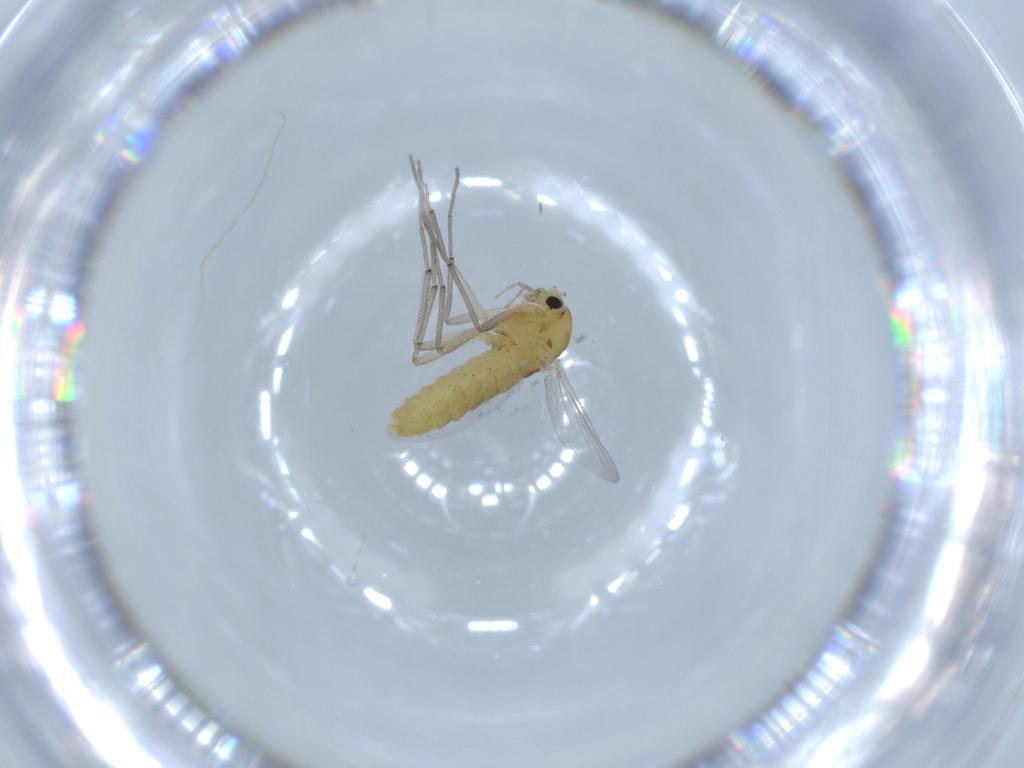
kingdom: Animalia
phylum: Arthropoda
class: Insecta
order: Diptera
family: Chironomidae
